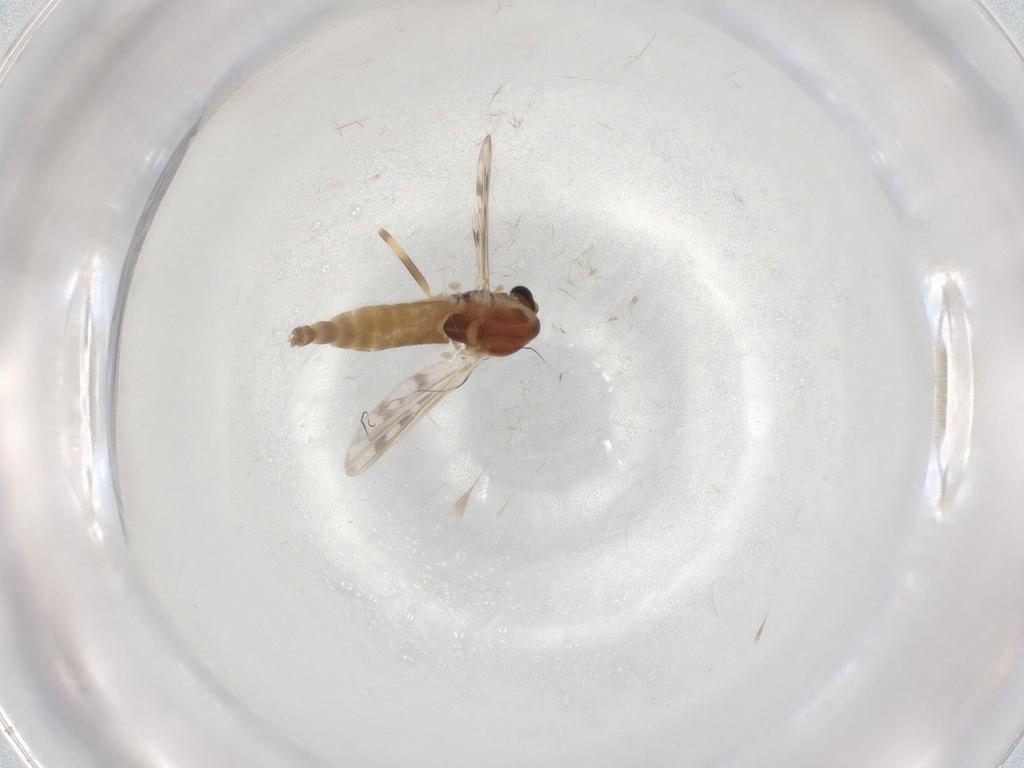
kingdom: Animalia
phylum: Arthropoda
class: Insecta
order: Diptera
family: Chironomidae
